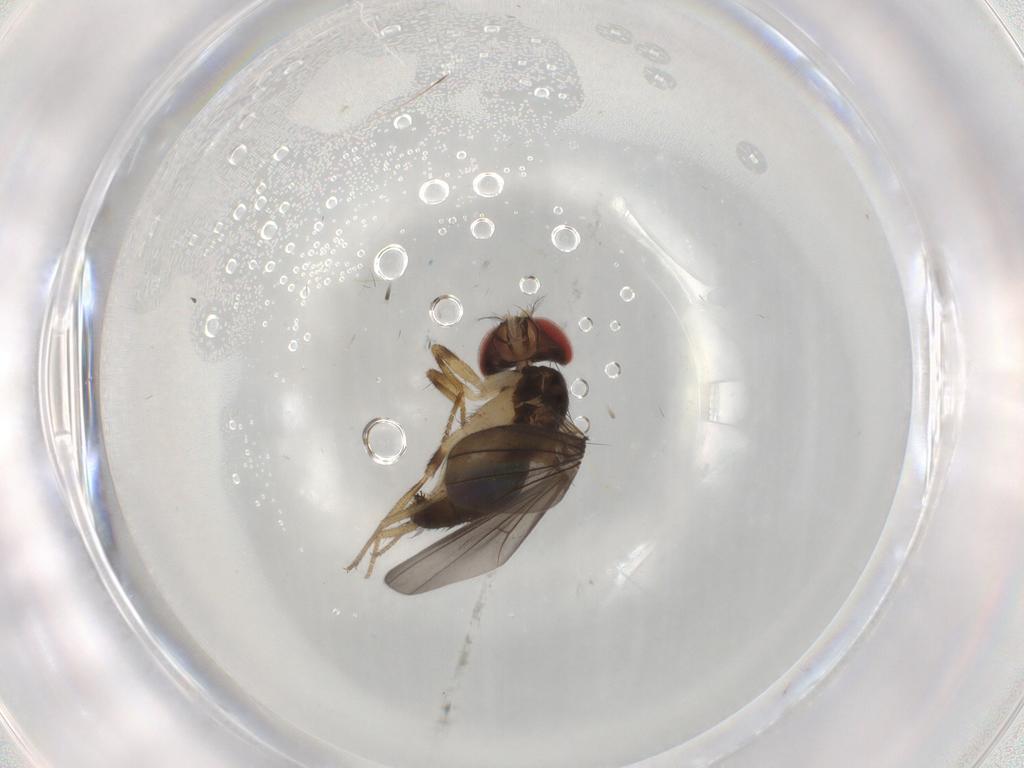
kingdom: Animalia
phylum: Arthropoda
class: Insecta
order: Diptera
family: Drosophilidae
